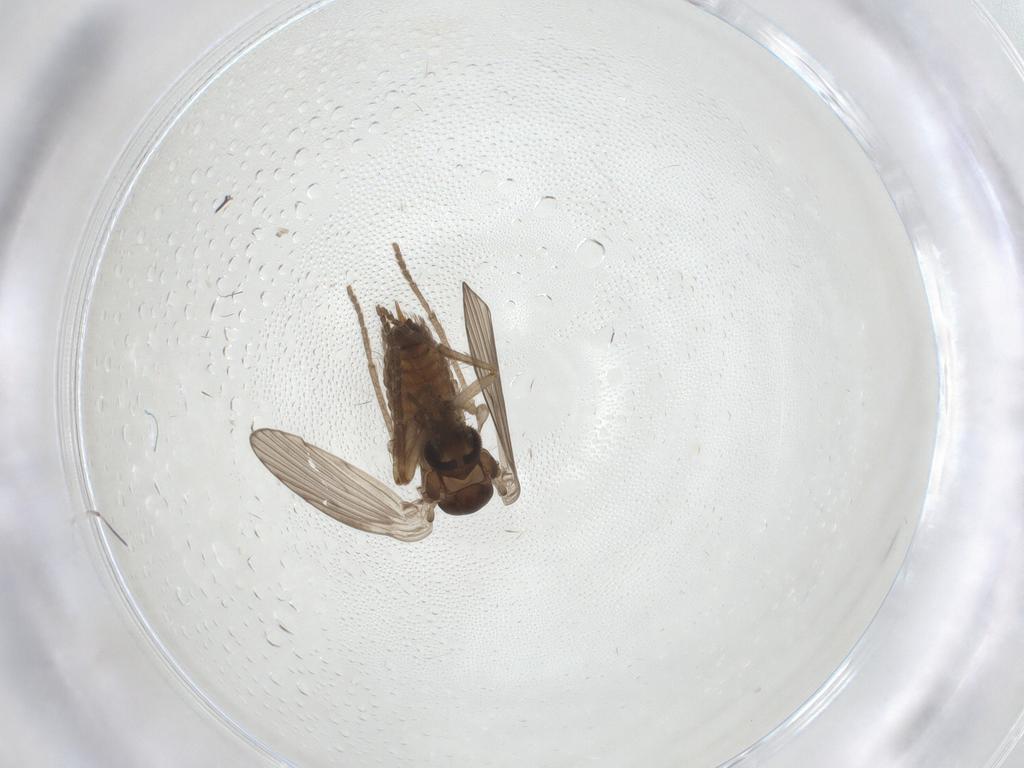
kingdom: Animalia
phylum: Arthropoda
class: Insecta
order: Diptera
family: Psychodidae
